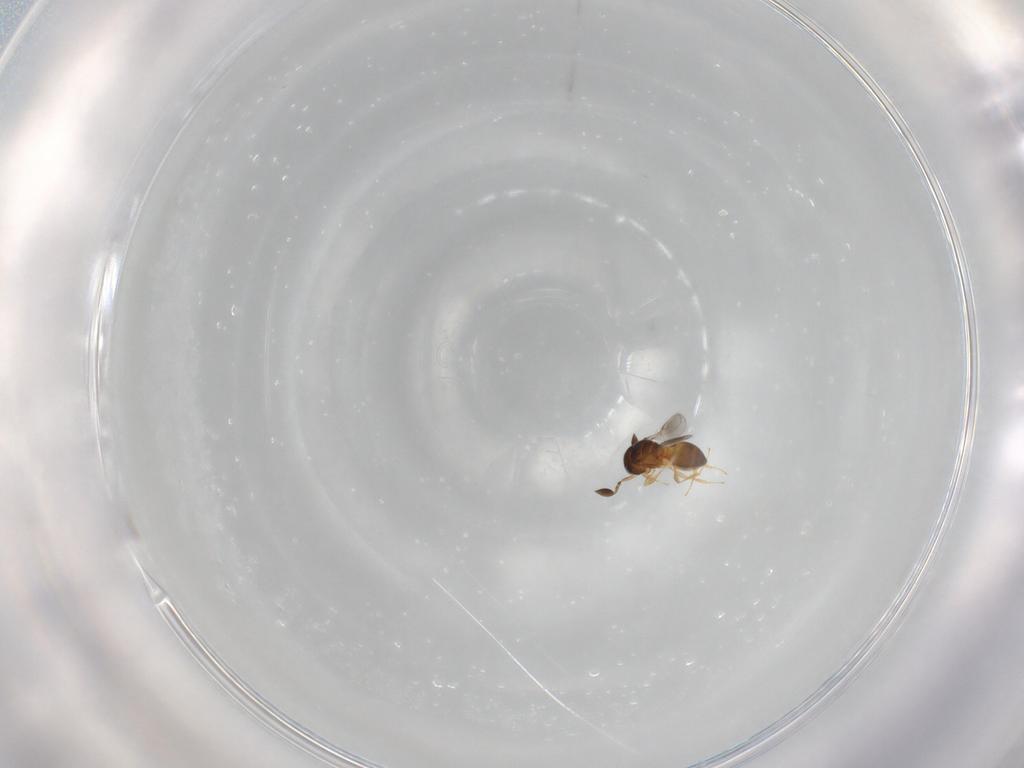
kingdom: Animalia
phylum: Arthropoda
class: Insecta
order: Hymenoptera
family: Scelionidae
